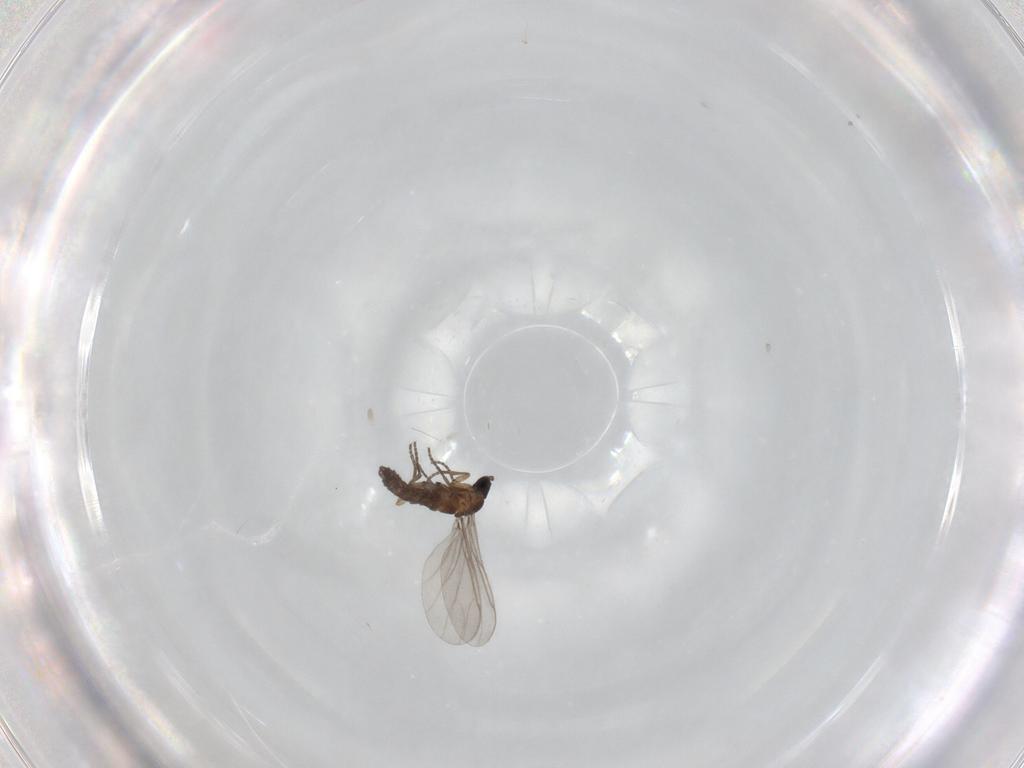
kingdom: Animalia
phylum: Arthropoda
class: Insecta
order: Diptera
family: Sciaridae
